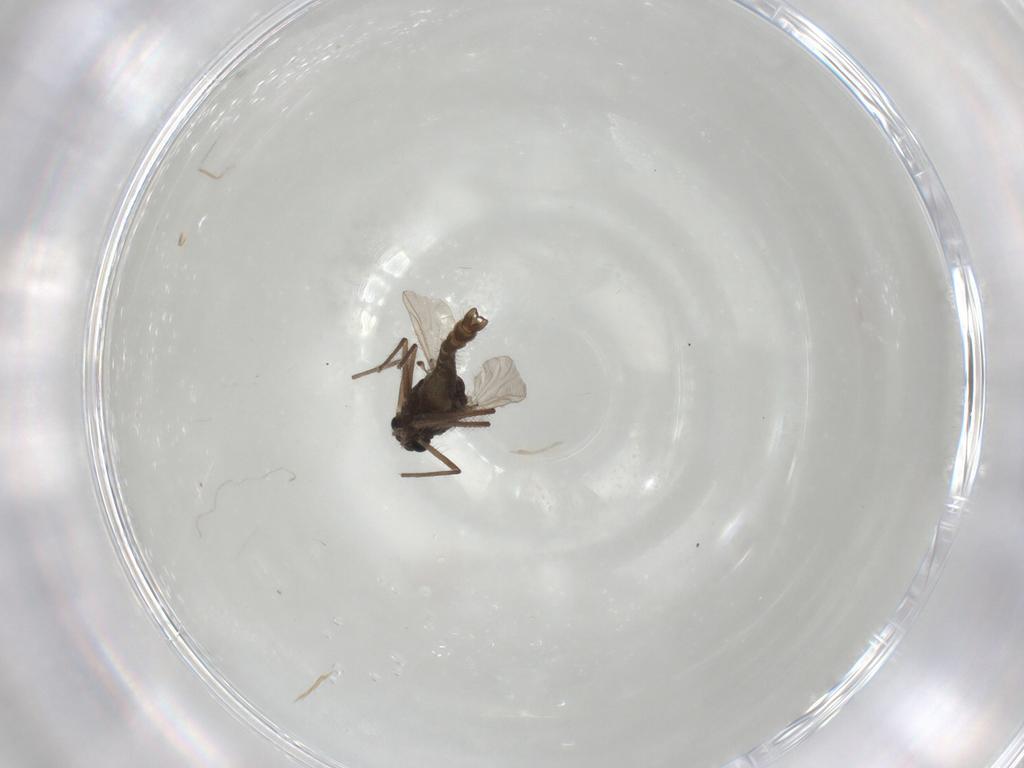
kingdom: Animalia
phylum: Arthropoda
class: Insecta
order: Diptera
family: Chironomidae
